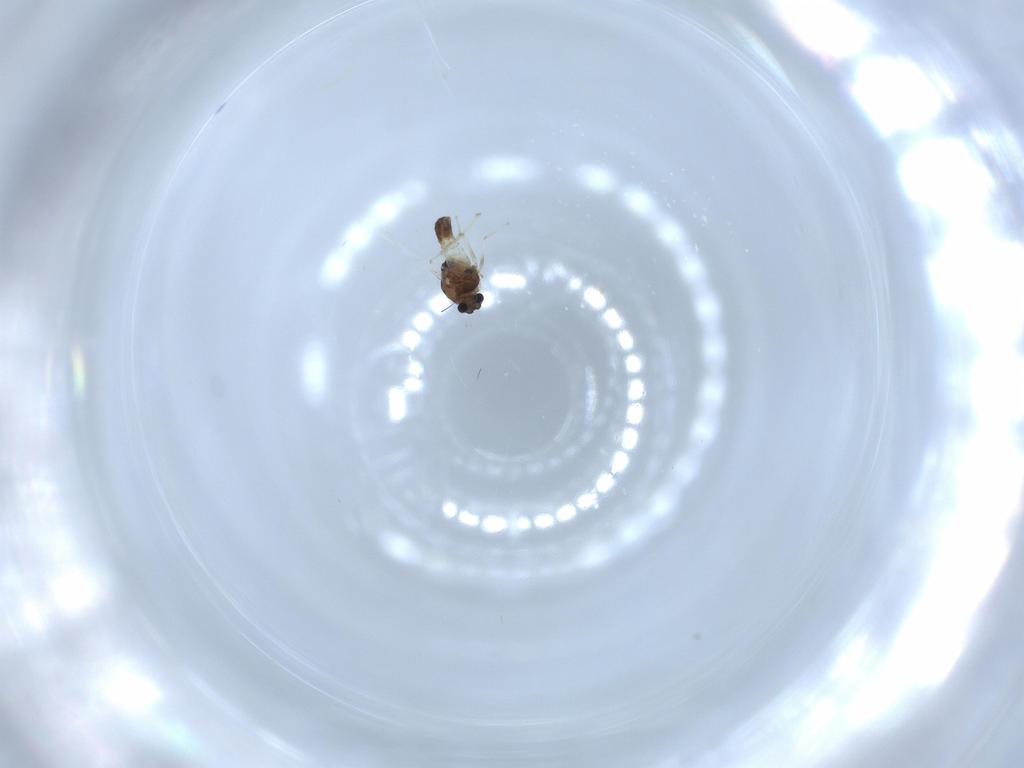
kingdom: Animalia
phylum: Arthropoda
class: Insecta
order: Diptera
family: Chironomidae
